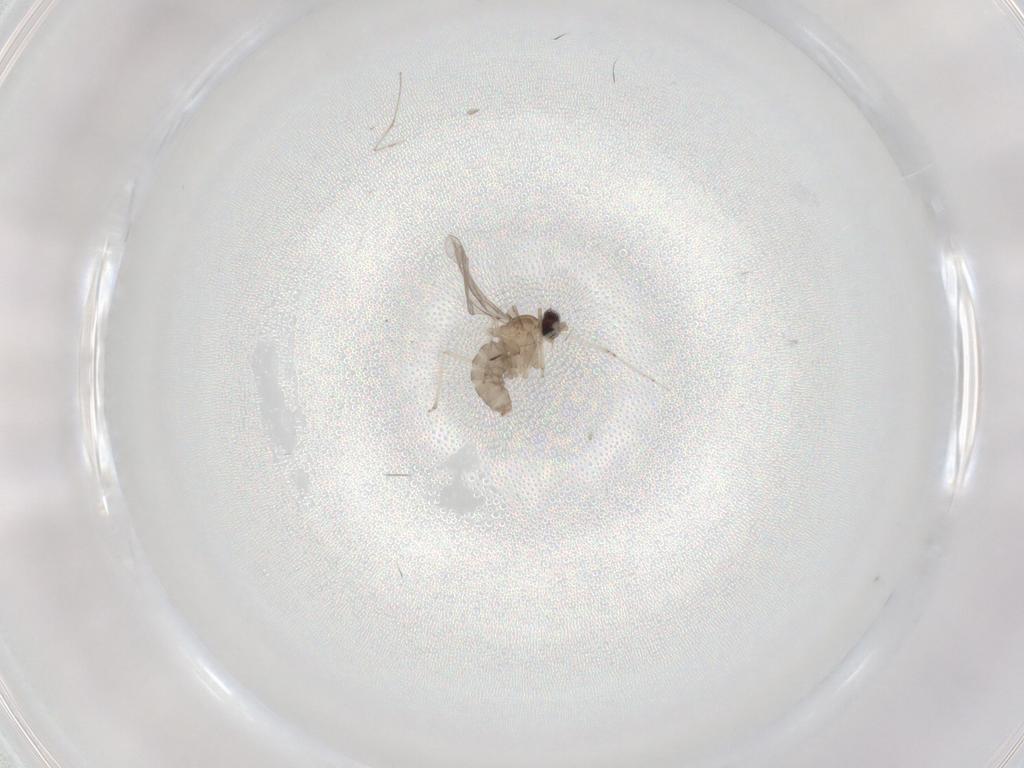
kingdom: Animalia
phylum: Arthropoda
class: Insecta
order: Diptera
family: Cecidomyiidae
